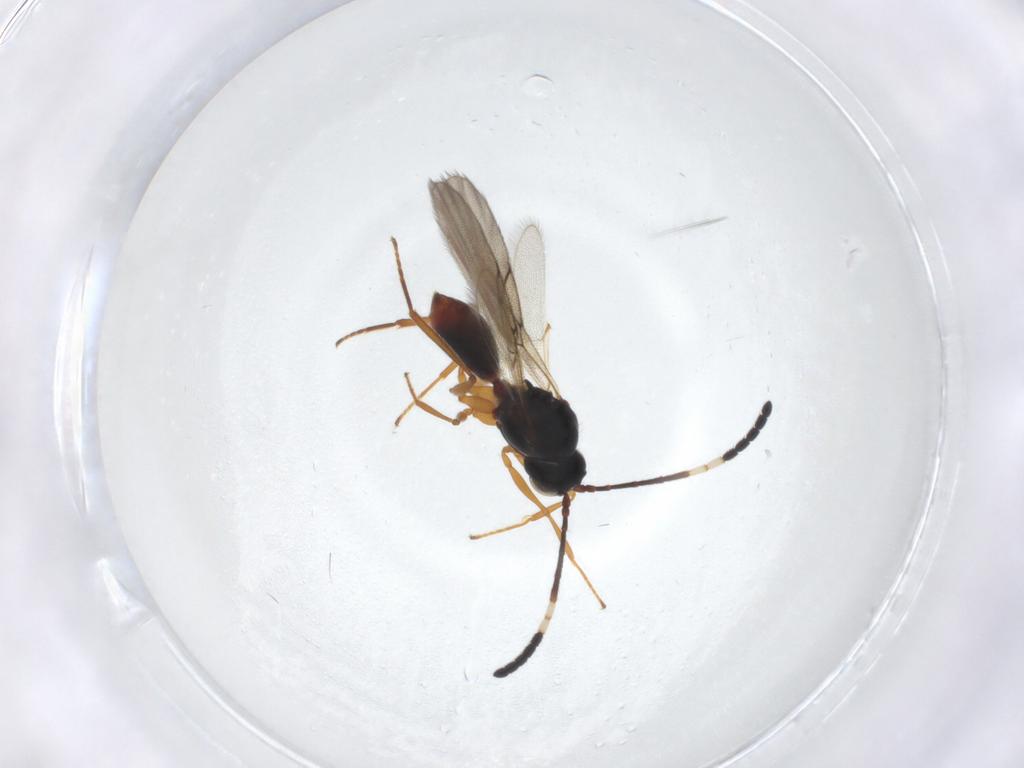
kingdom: Animalia
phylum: Arthropoda
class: Insecta
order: Hymenoptera
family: Figitidae
